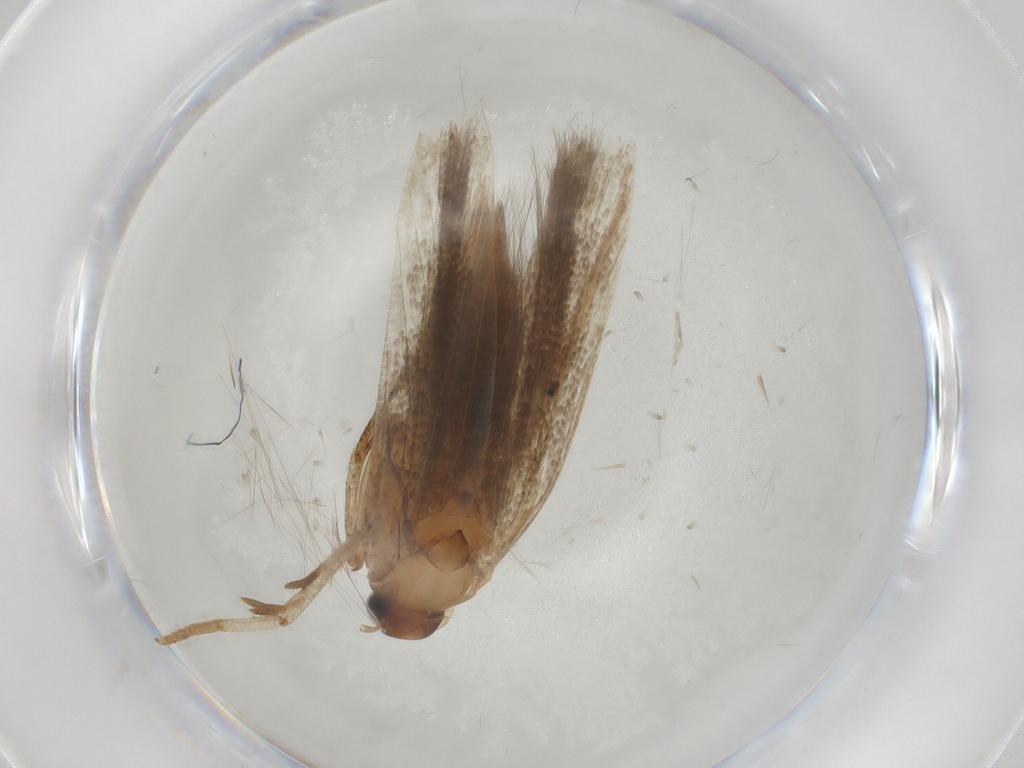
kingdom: Animalia
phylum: Arthropoda
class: Insecta
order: Lepidoptera
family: Gelechiidae
